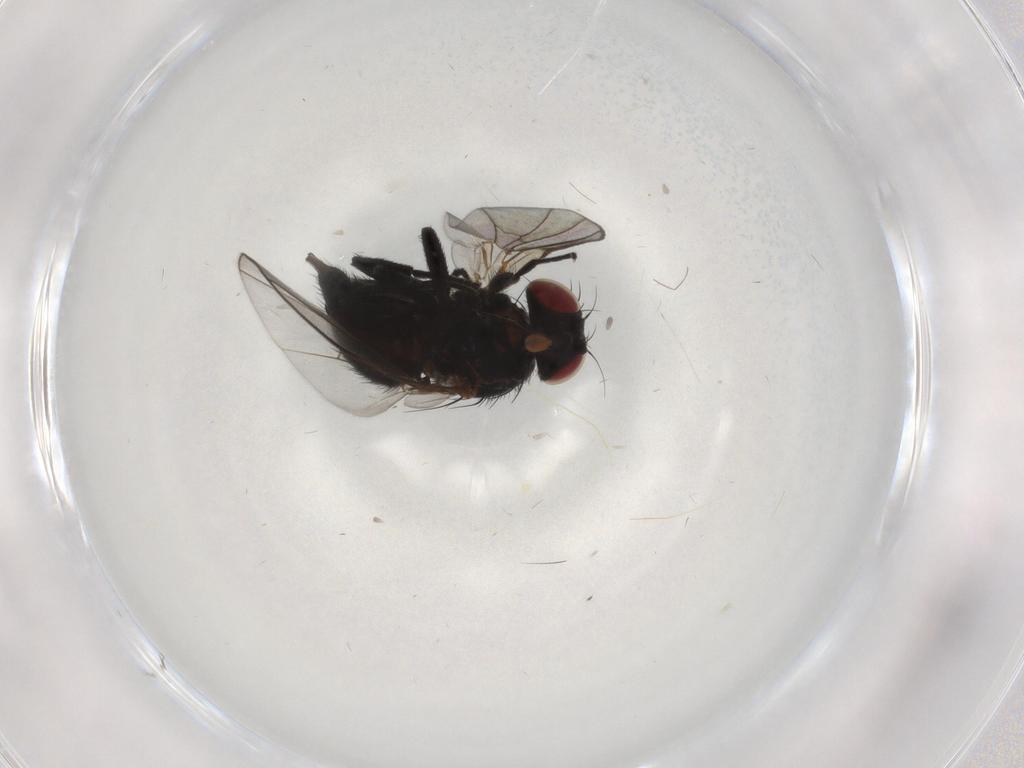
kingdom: Animalia
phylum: Arthropoda
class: Insecta
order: Diptera
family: Agromyzidae
